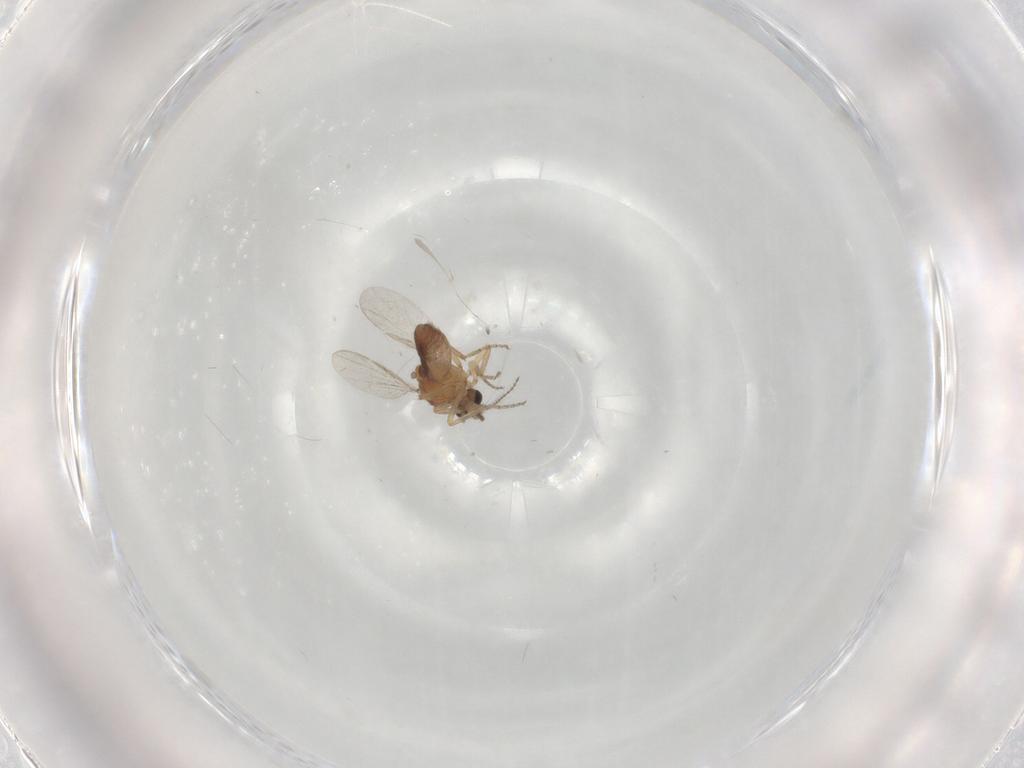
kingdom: Animalia
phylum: Arthropoda
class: Insecta
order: Diptera
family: Ceratopogonidae
